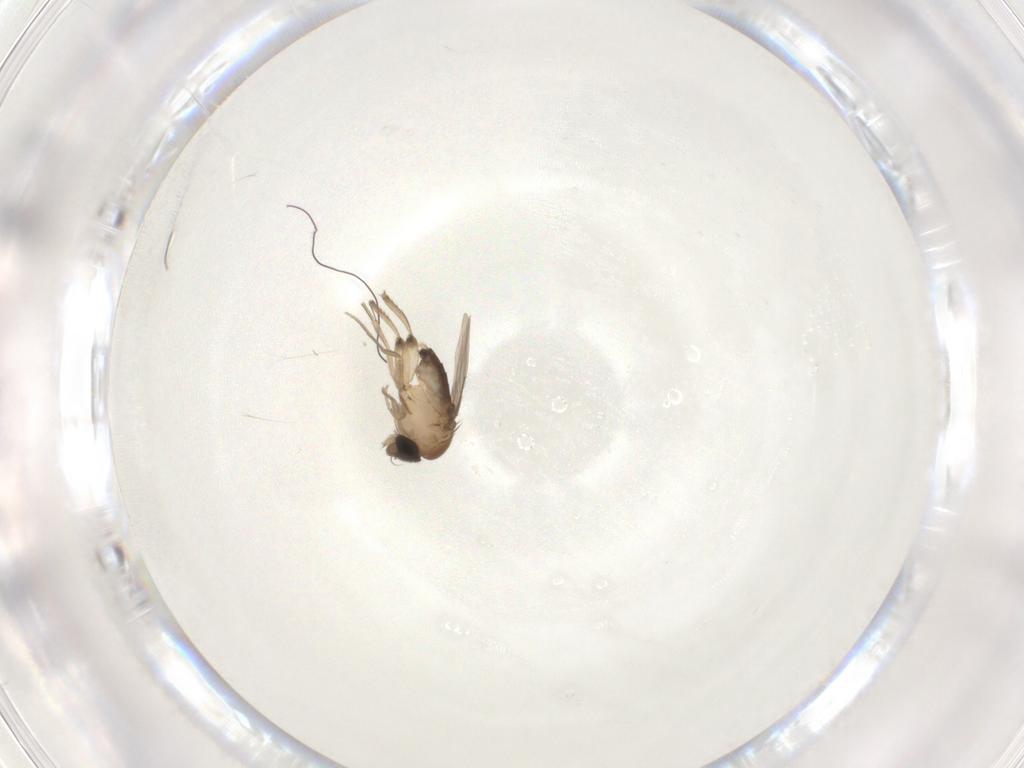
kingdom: Animalia
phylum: Arthropoda
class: Insecta
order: Diptera
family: Phoridae
